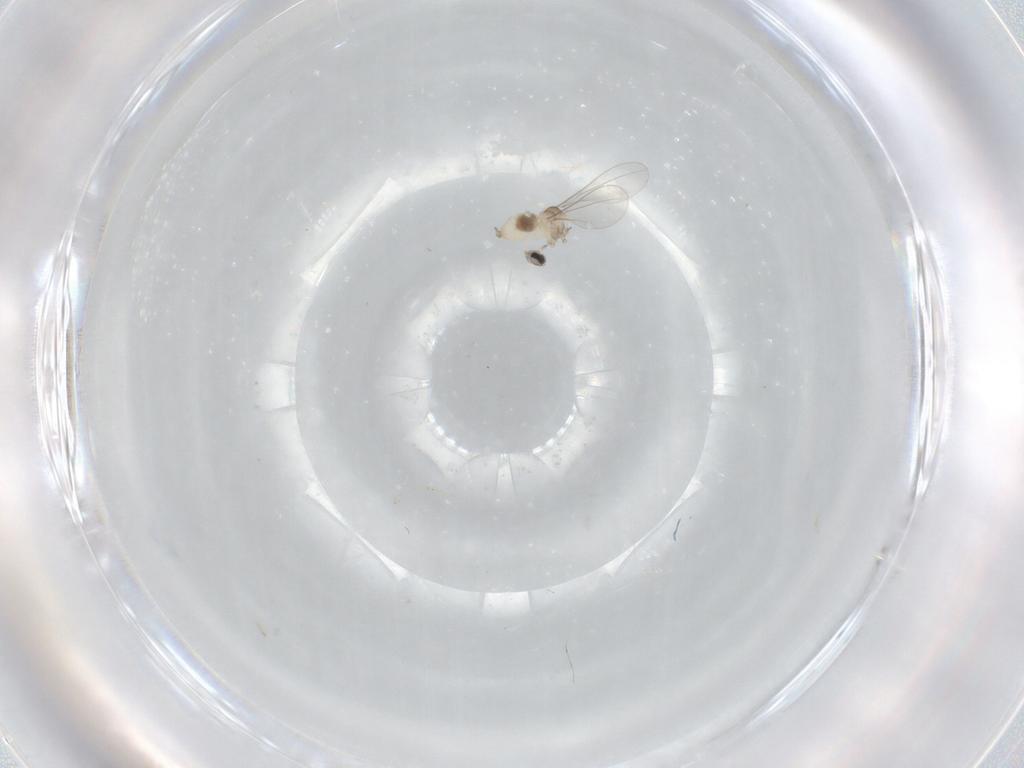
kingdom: Animalia
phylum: Arthropoda
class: Insecta
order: Diptera
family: Cecidomyiidae
